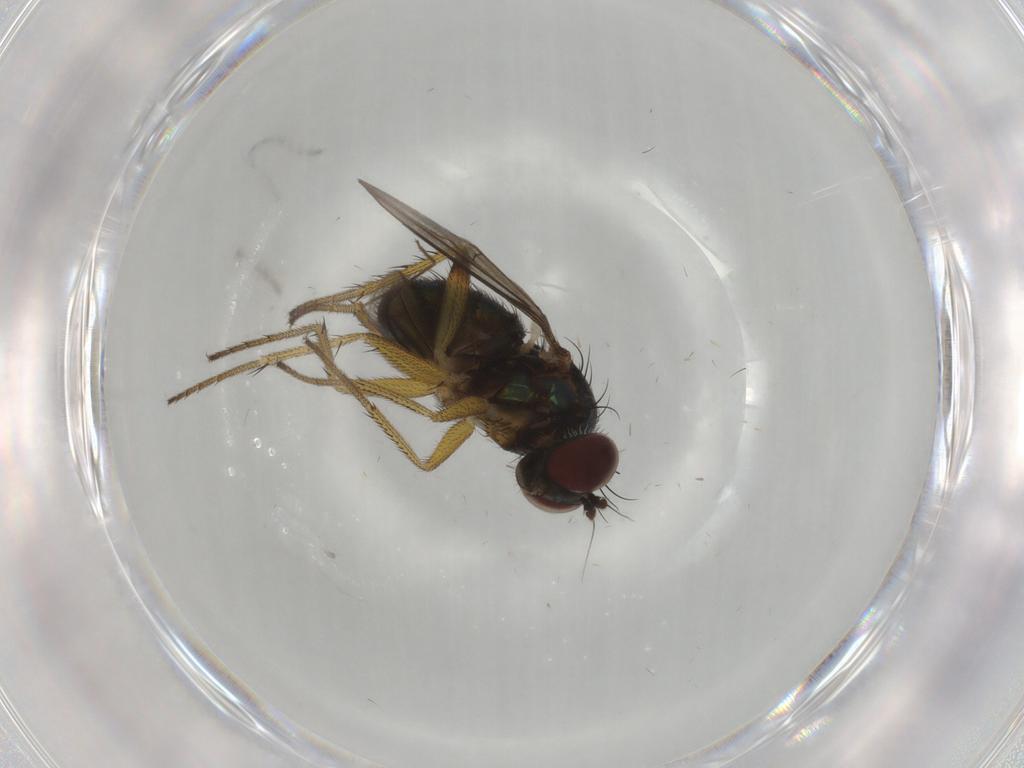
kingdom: Animalia
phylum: Arthropoda
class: Insecta
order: Diptera
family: Dolichopodidae
